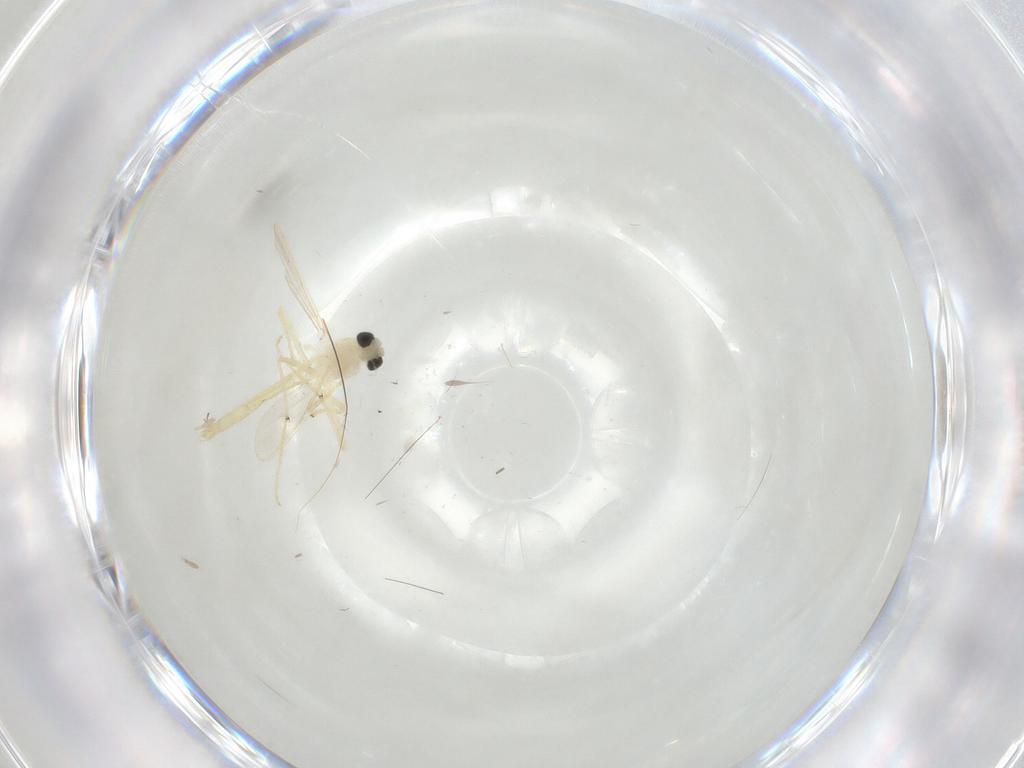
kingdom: Animalia
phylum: Arthropoda
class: Insecta
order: Diptera
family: Chironomidae
